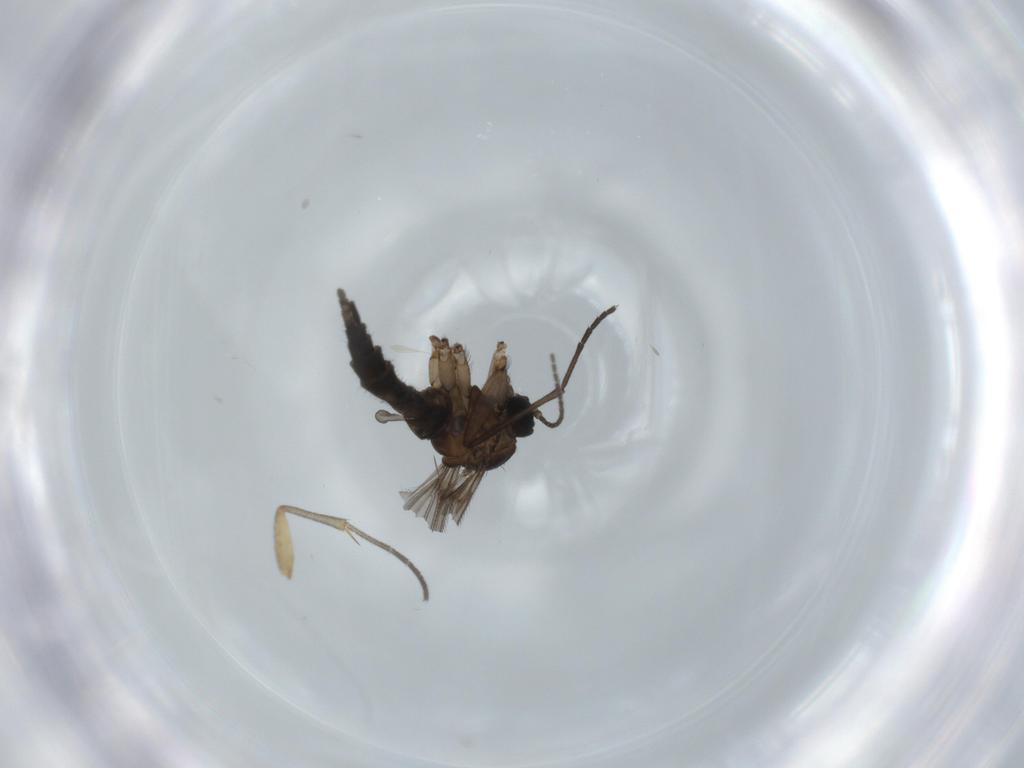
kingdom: Animalia
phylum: Arthropoda
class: Insecta
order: Diptera
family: Sciaridae
